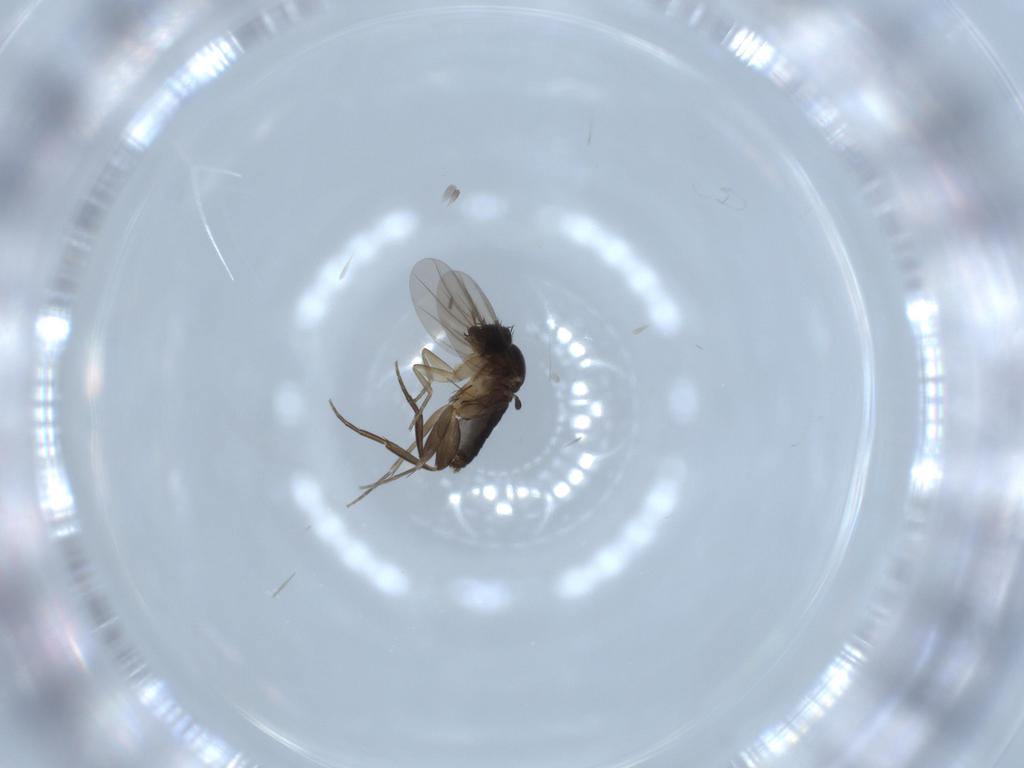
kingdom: Animalia
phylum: Arthropoda
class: Insecta
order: Diptera
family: Phoridae
